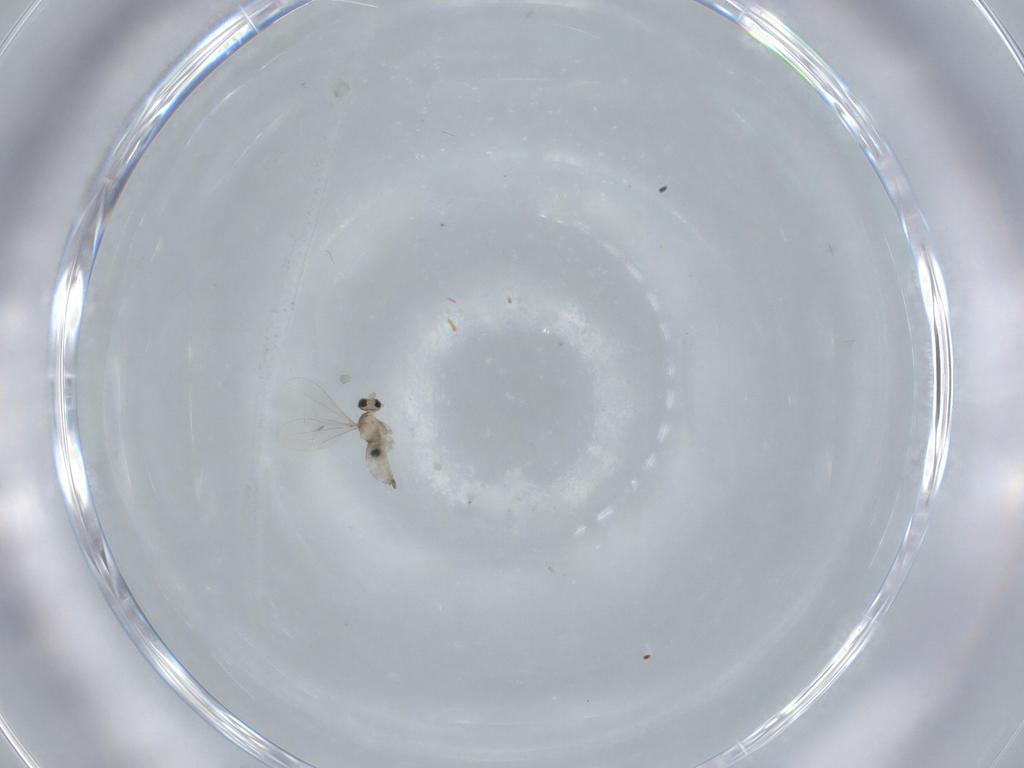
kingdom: Animalia
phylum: Arthropoda
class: Insecta
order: Diptera
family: Cecidomyiidae
